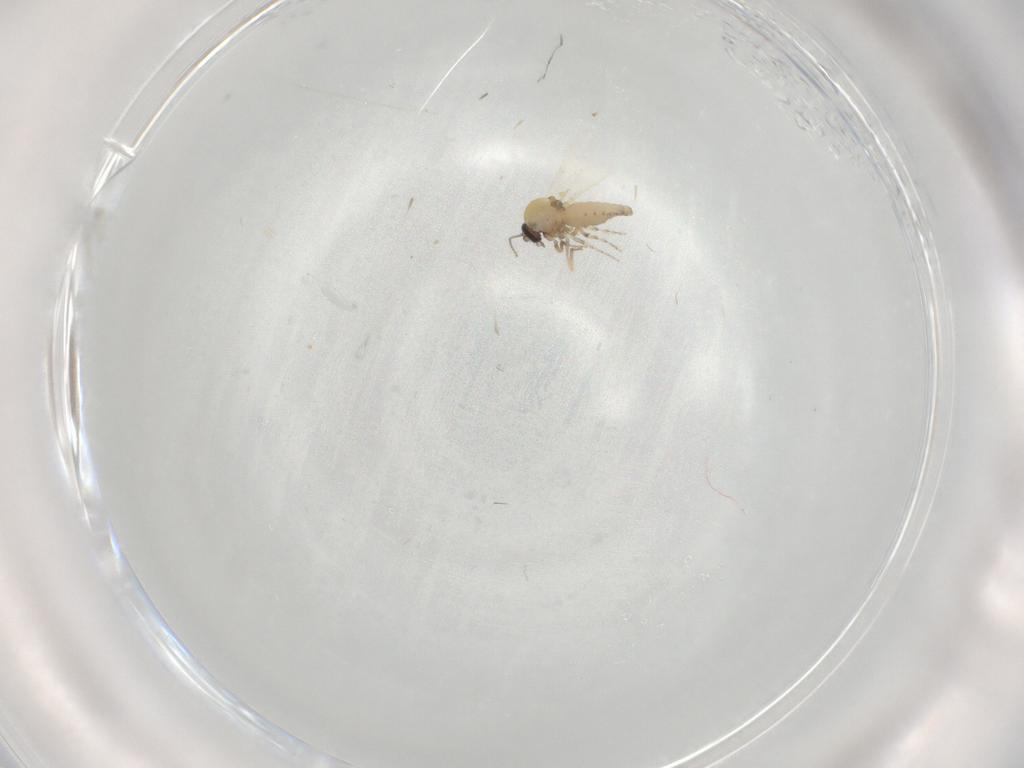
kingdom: Animalia
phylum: Arthropoda
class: Insecta
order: Diptera
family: Ceratopogonidae
